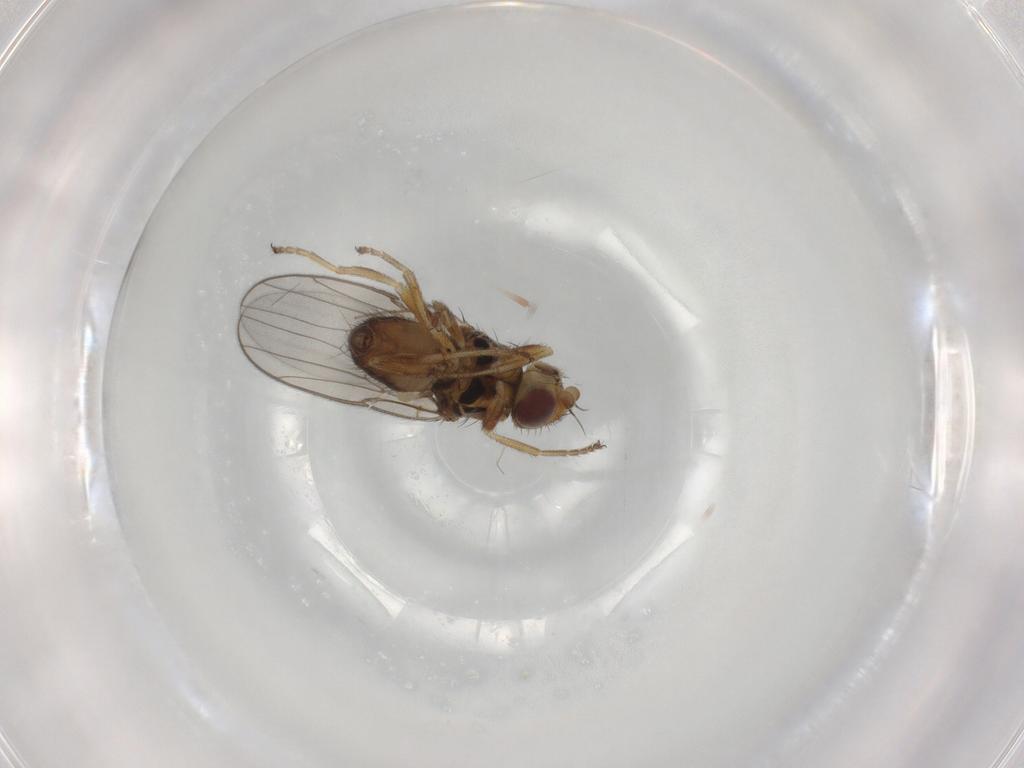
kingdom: Animalia
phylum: Arthropoda
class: Insecta
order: Diptera
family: Chloropidae
